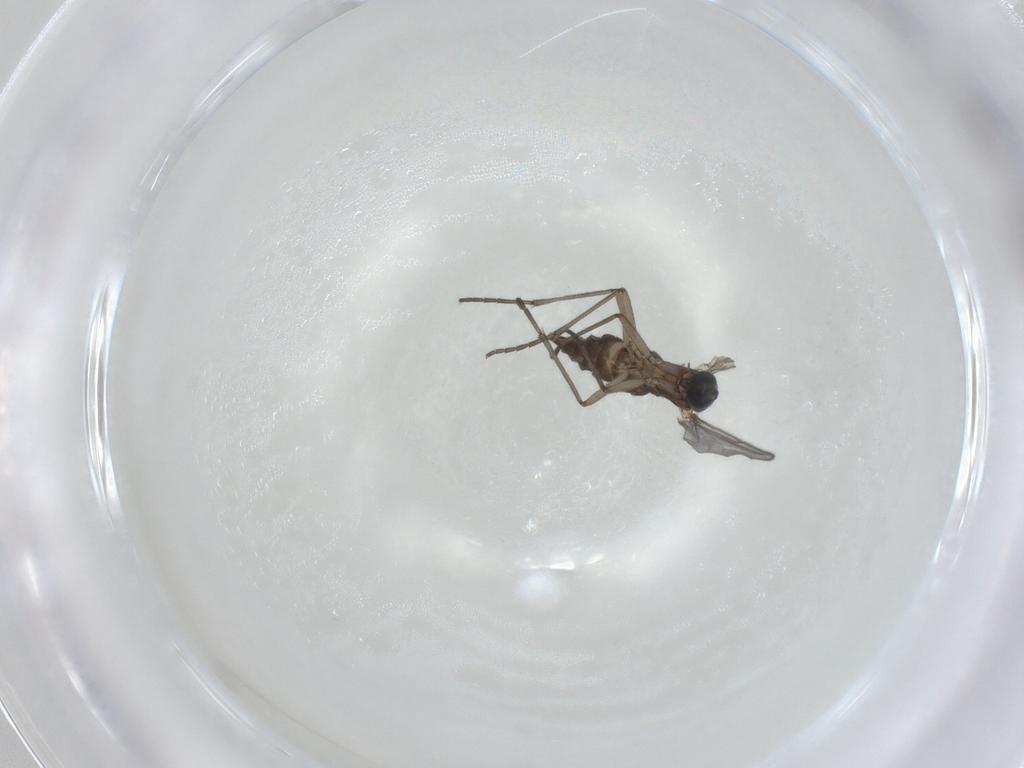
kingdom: Animalia
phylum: Arthropoda
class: Insecta
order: Diptera
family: Sciaridae
